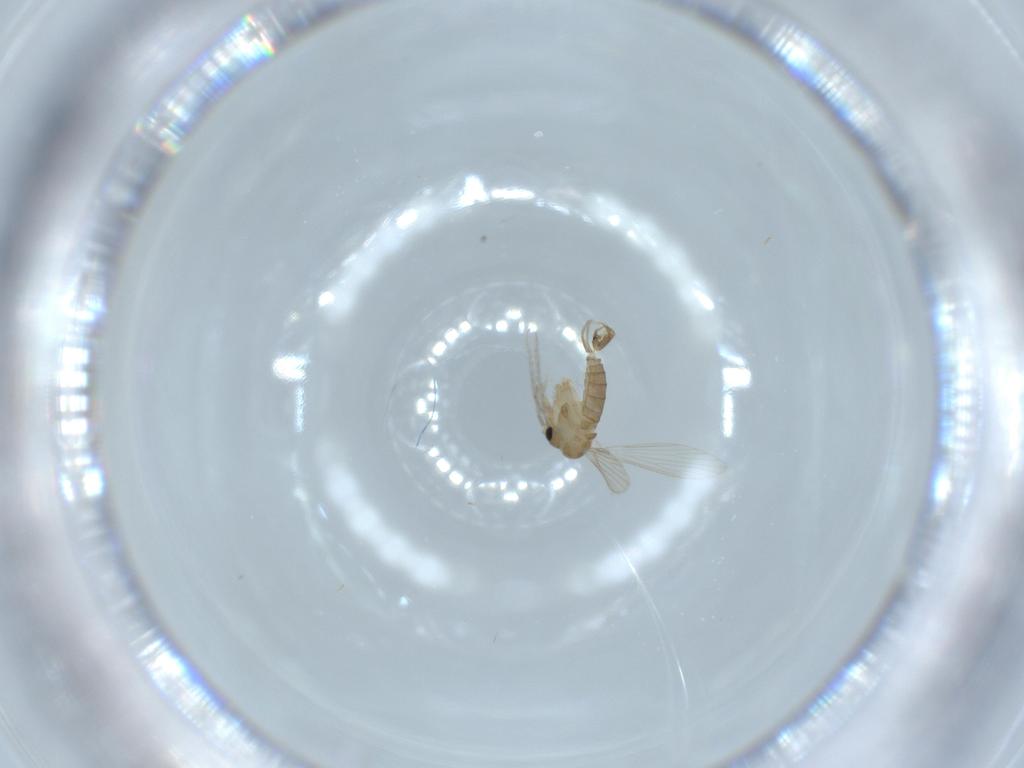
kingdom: Animalia
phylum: Arthropoda
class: Insecta
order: Diptera
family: Psychodidae
